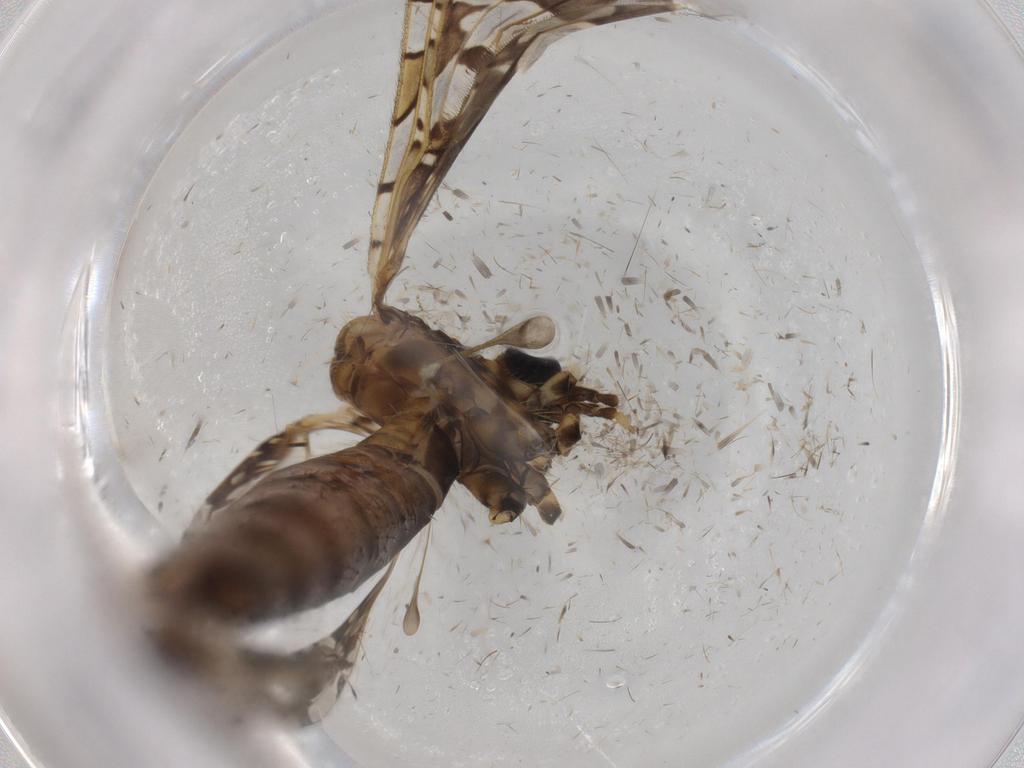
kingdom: Animalia
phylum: Arthropoda
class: Insecta
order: Diptera
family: Limoniidae
